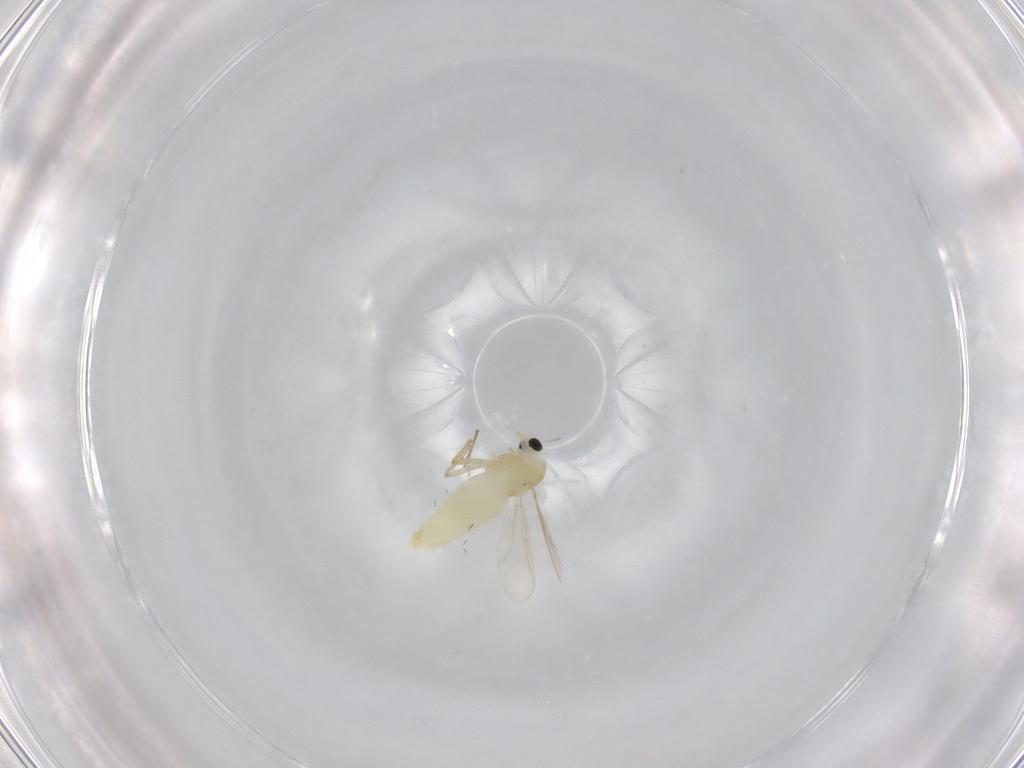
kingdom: Animalia
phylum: Arthropoda
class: Insecta
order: Diptera
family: Chironomidae
